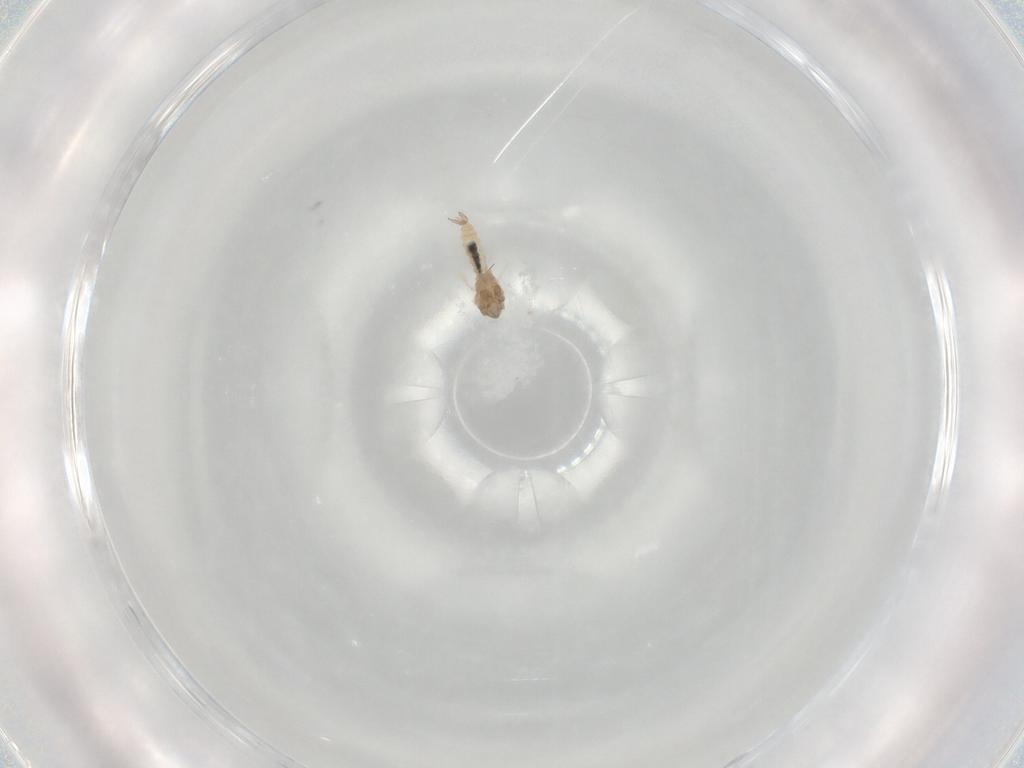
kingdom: Animalia
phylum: Arthropoda
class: Insecta
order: Diptera
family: Cecidomyiidae
